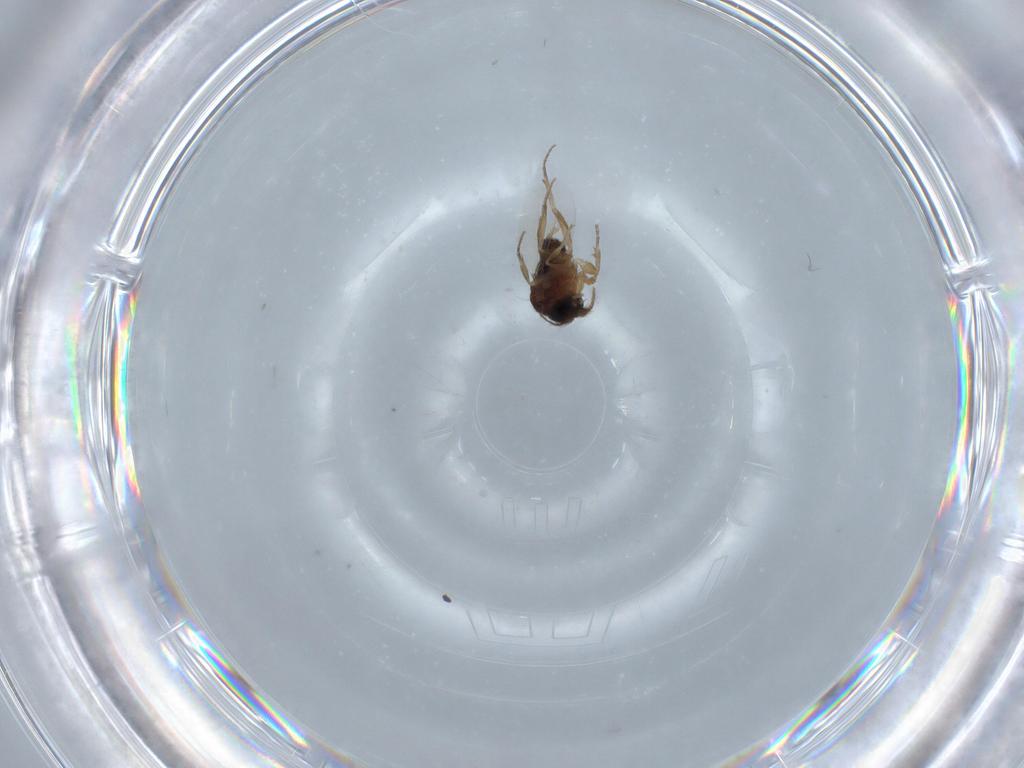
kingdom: Animalia
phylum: Arthropoda
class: Insecta
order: Diptera
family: Phoridae
